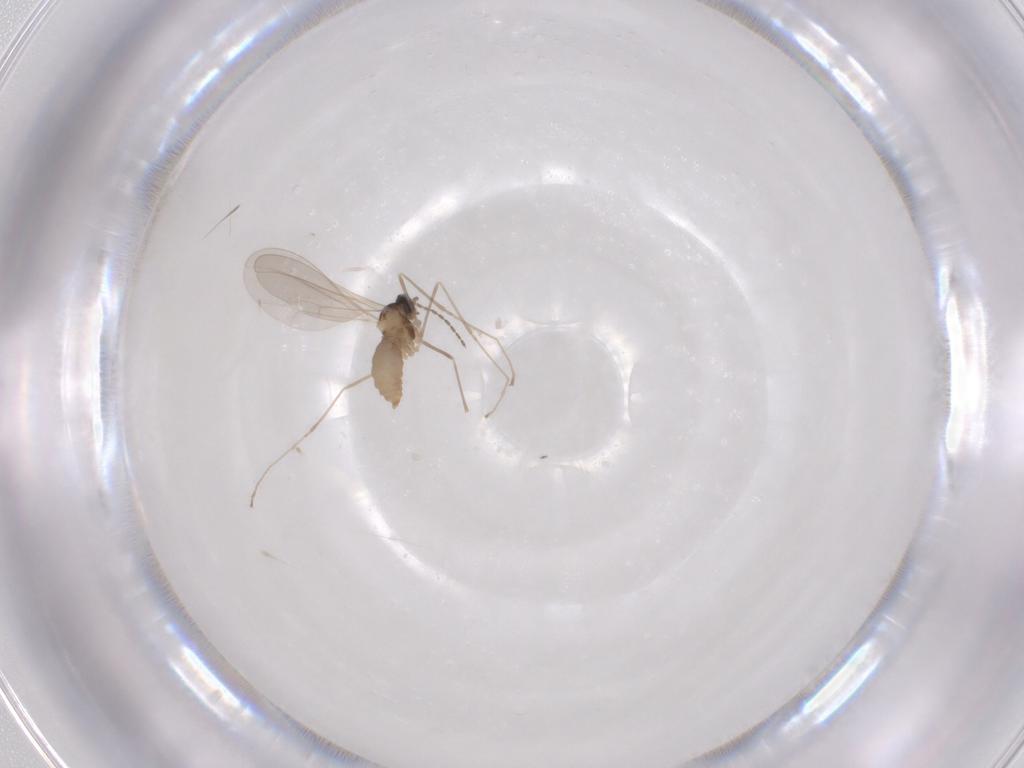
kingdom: Animalia
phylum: Arthropoda
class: Insecta
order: Diptera
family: Cecidomyiidae
